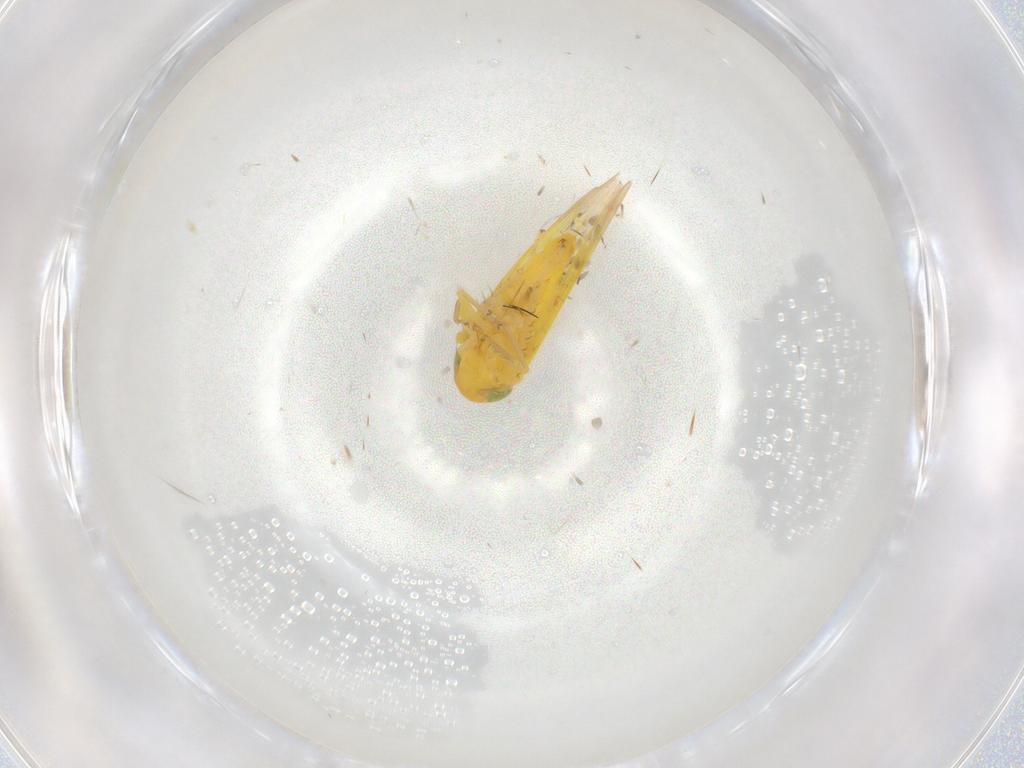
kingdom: Animalia
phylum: Arthropoda
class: Insecta
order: Hemiptera
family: Cicadellidae
